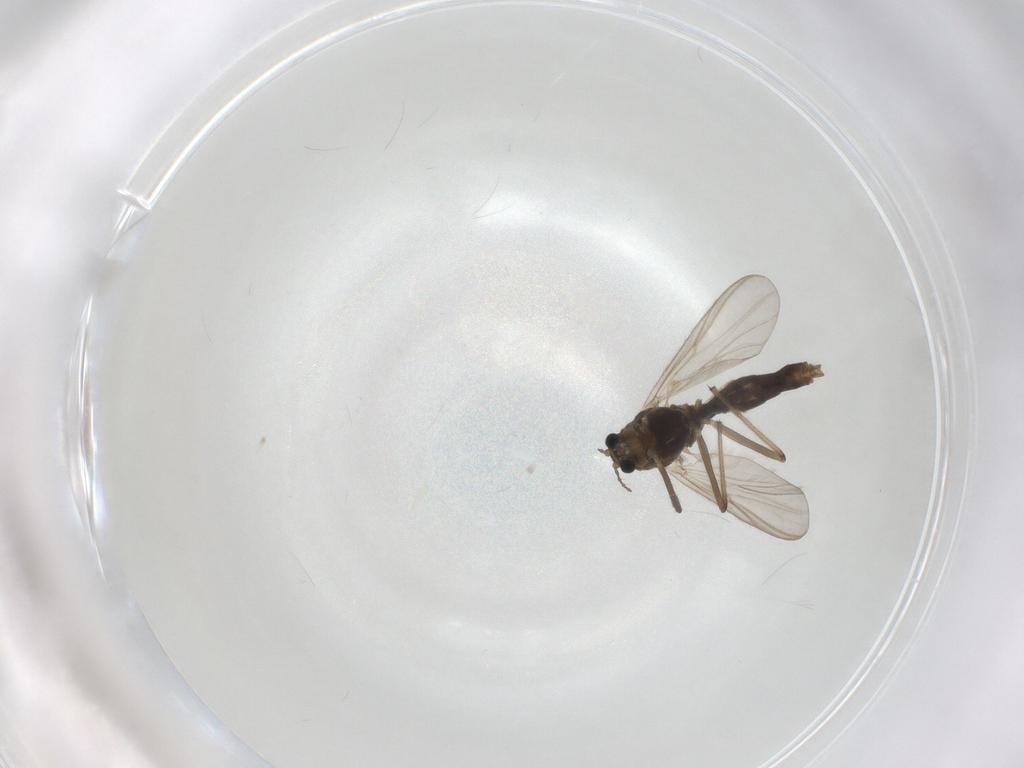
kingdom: Animalia
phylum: Arthropoda
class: Insecta
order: Diptera
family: Chironomidae
